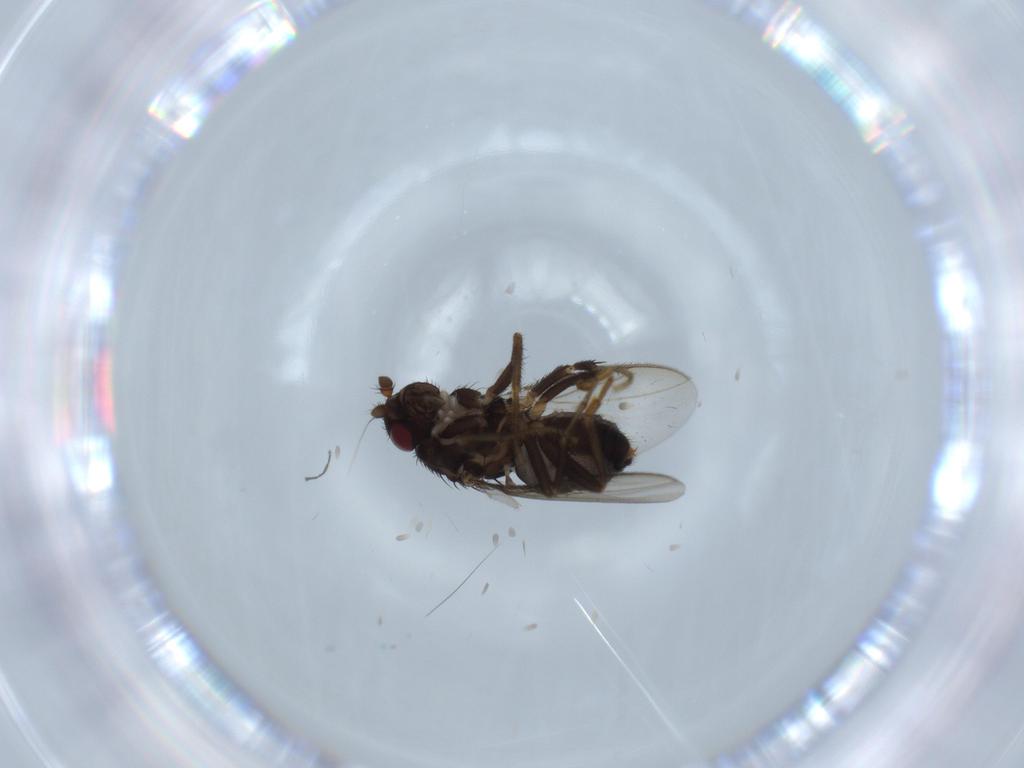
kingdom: Animalia
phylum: Arthropoda
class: Insecta
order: Diptera
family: Sphaeroceridae
